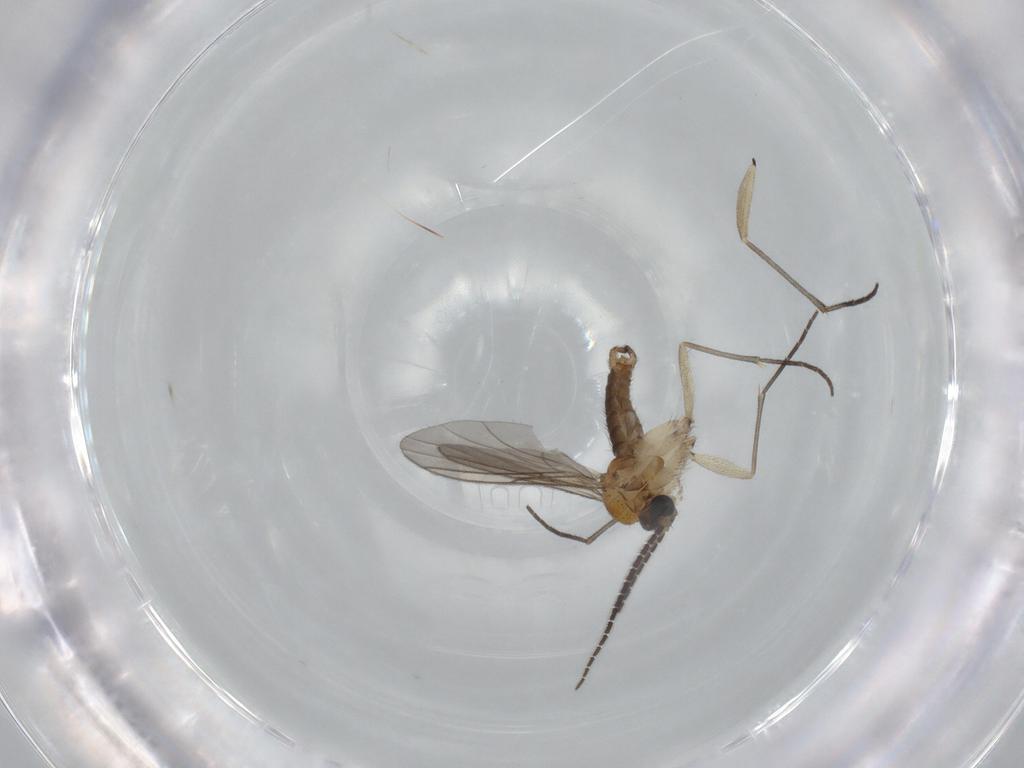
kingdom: Animalia
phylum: Arthropoda
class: Insecta
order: Diptera
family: Sciaridae
